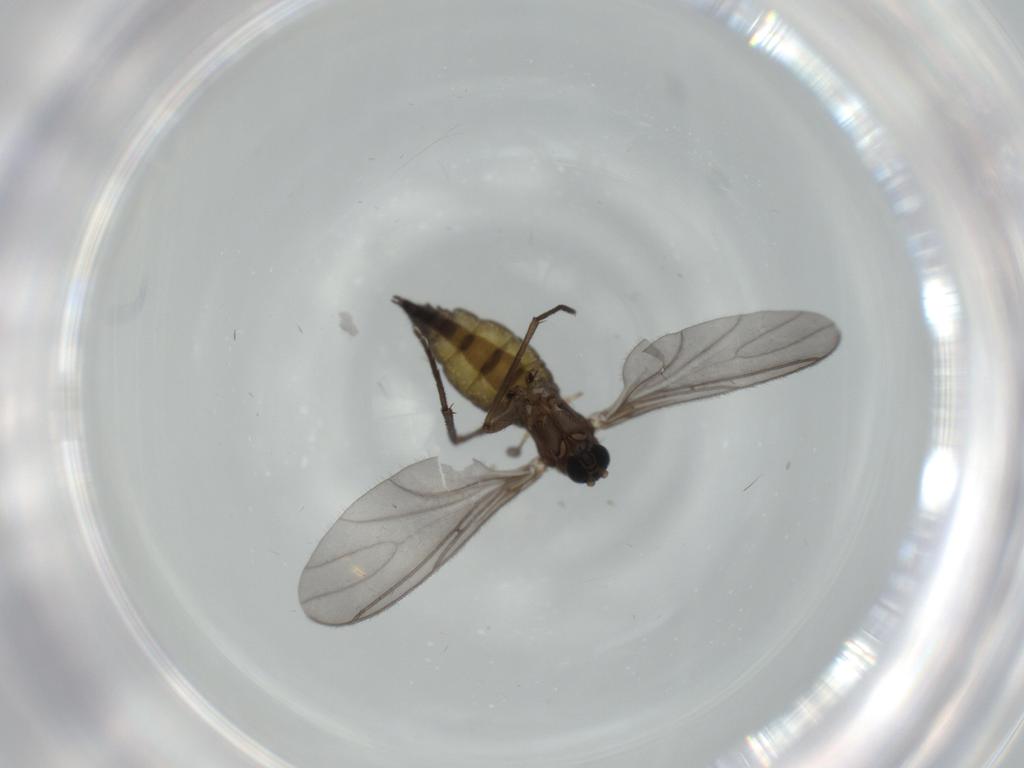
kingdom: Animalia
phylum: Arthropoda
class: Insecta
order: Diptera
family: Sciaridae
